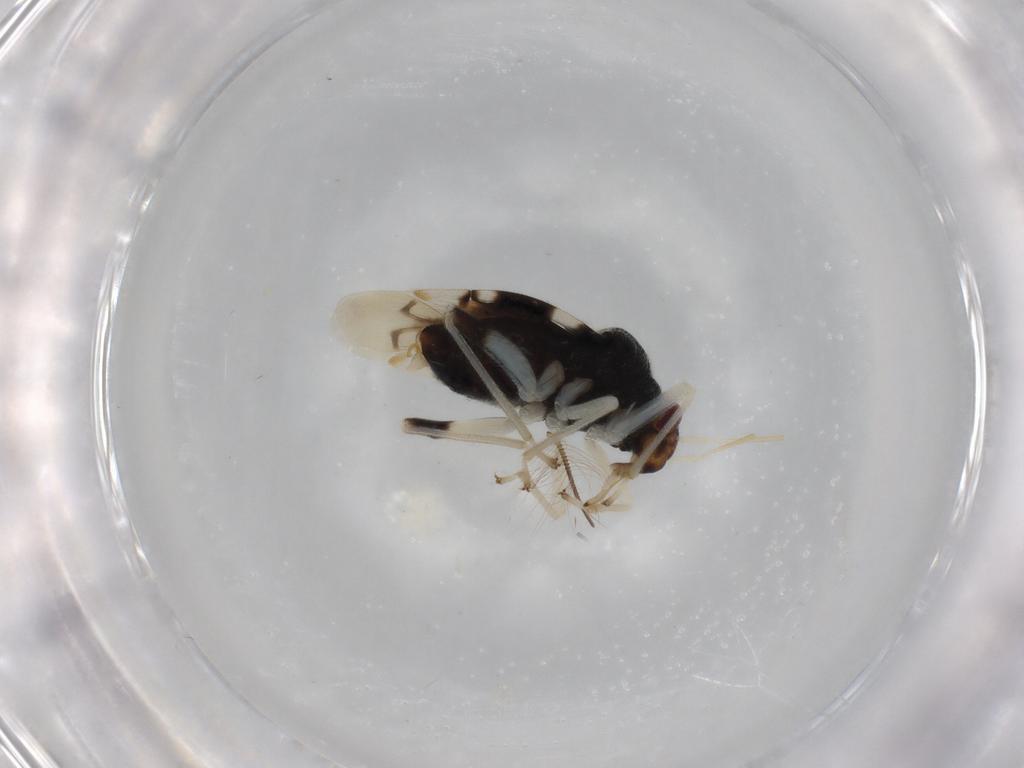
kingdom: Animalia
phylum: Arthropoda
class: Insecta
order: Hemiptera
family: Miridae
